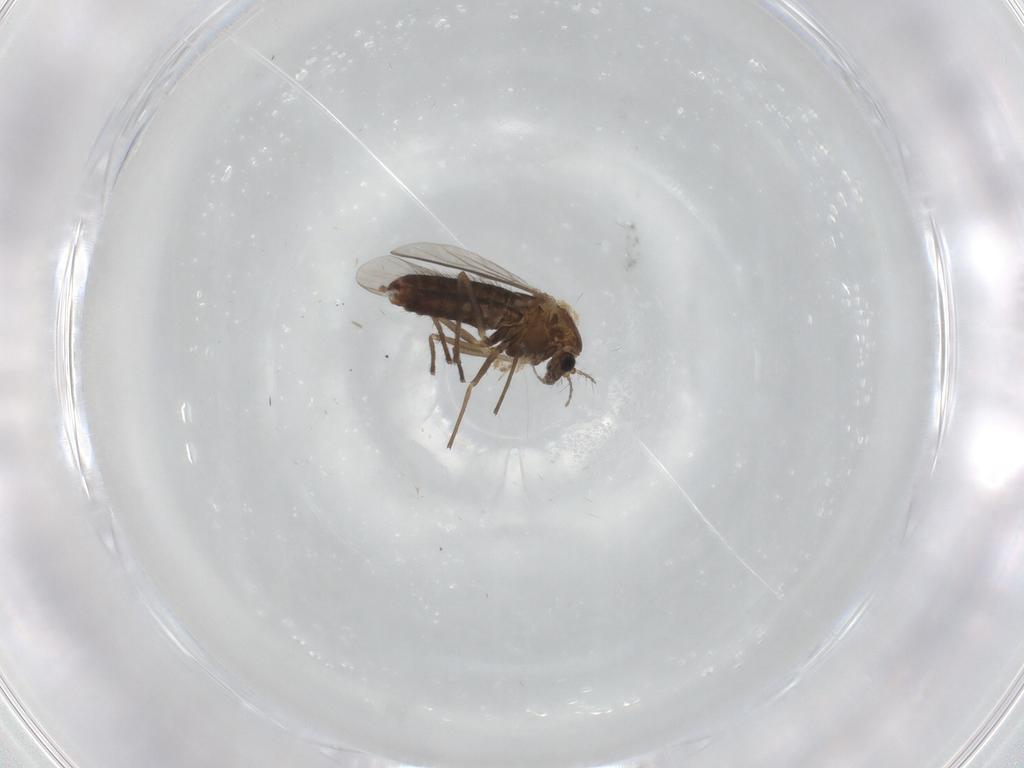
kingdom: Animalia
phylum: Arthropoda
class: Insecta
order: Diptera
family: Chironomidae
